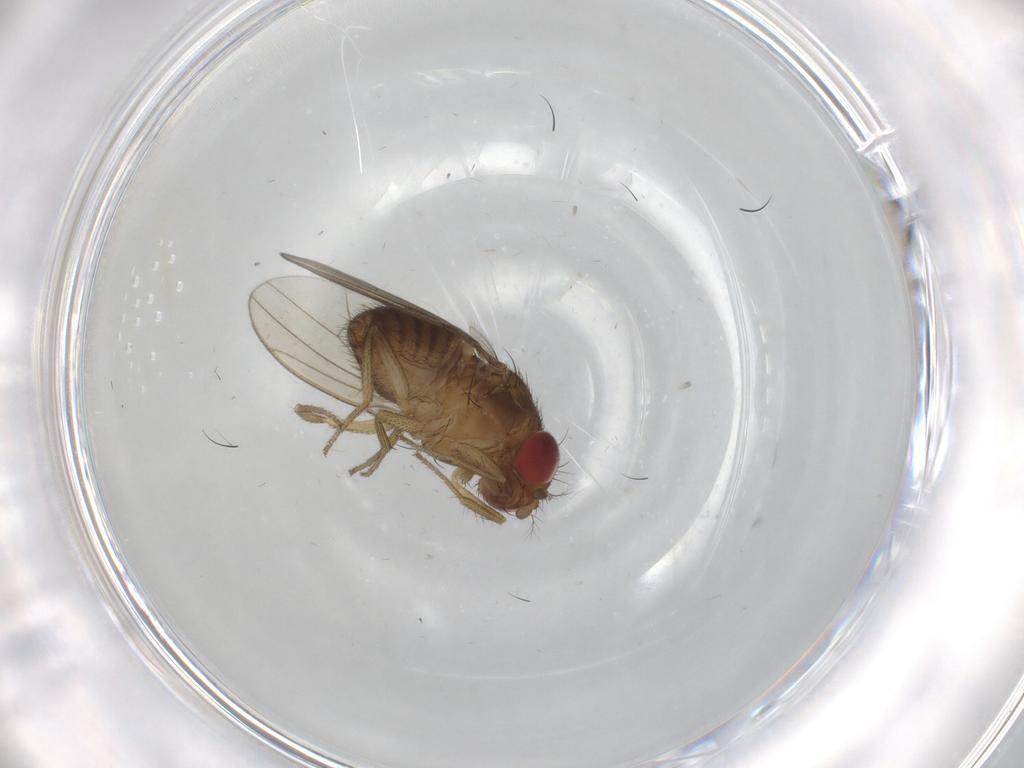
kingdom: Animalia
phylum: Arthropoda
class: Insecta
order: Diptera
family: Drosophilidae
